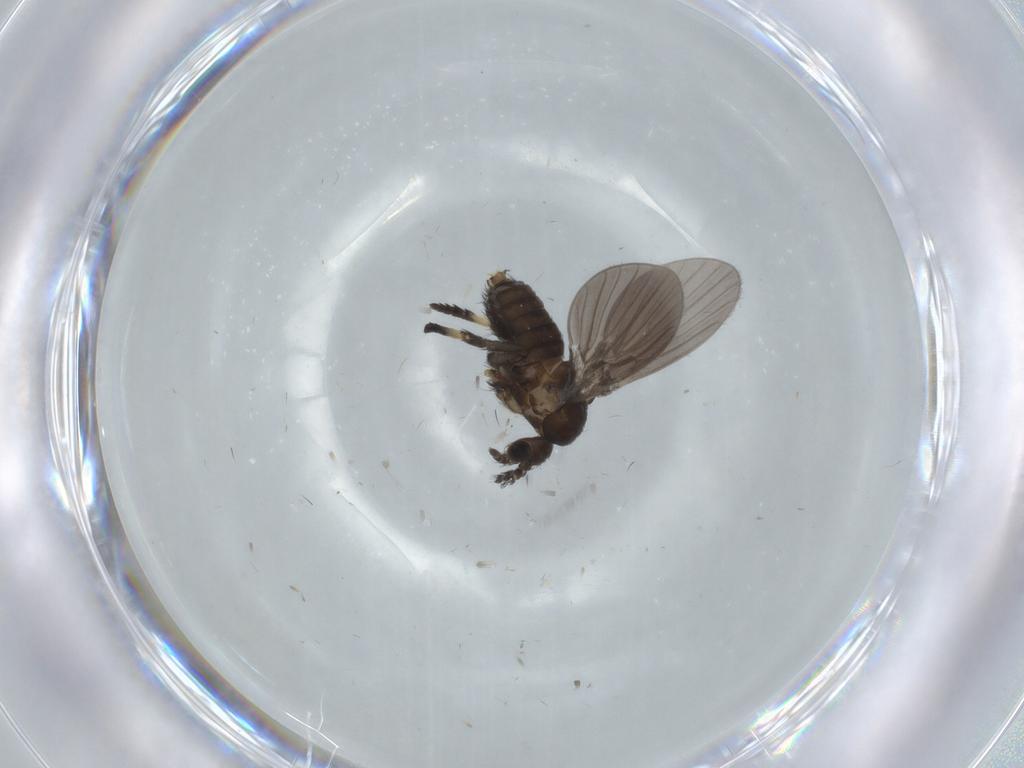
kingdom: Animalia
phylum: Arthropoda
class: Insecta
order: Diptera
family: Psychodidae
